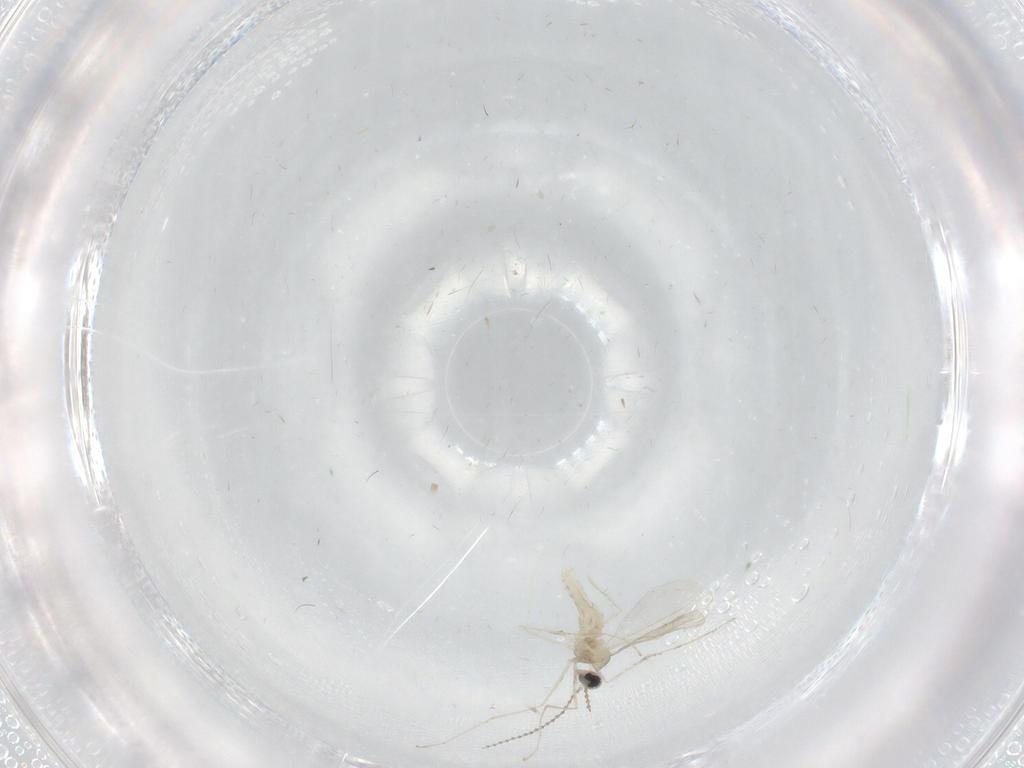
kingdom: Animalia
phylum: Arthropoda
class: Insecta
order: Diptera
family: Cecidomyiidae
